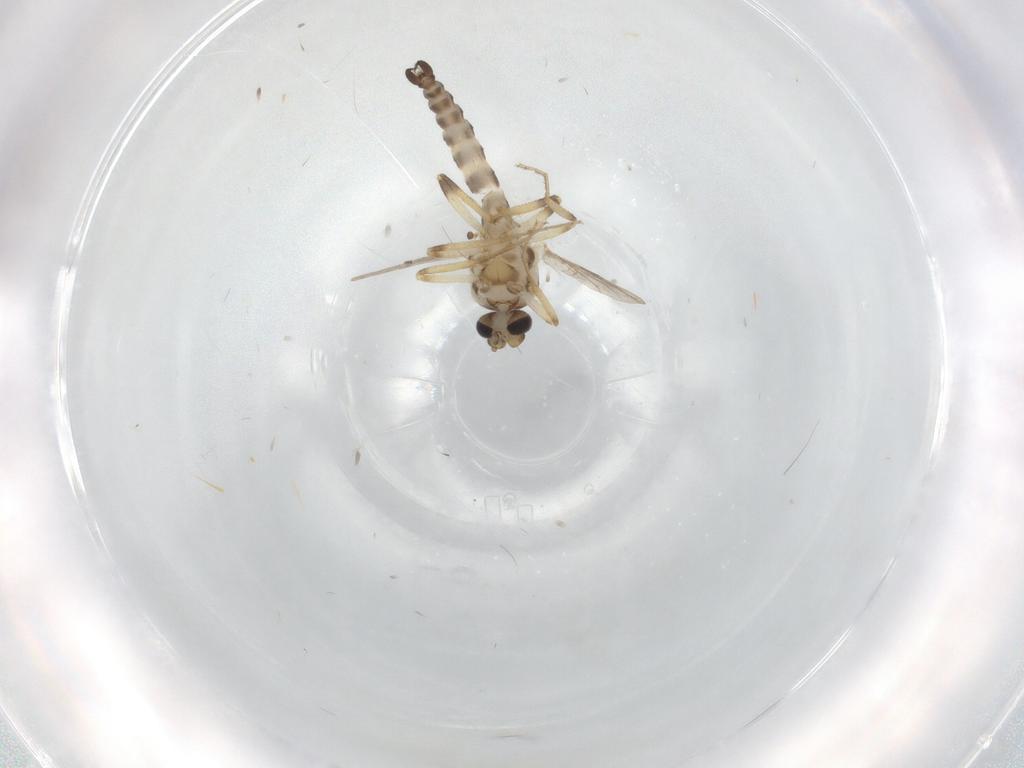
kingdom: Animalia
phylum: Arthropoda
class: Insecta
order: Diptera
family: Ceratopogonidae
